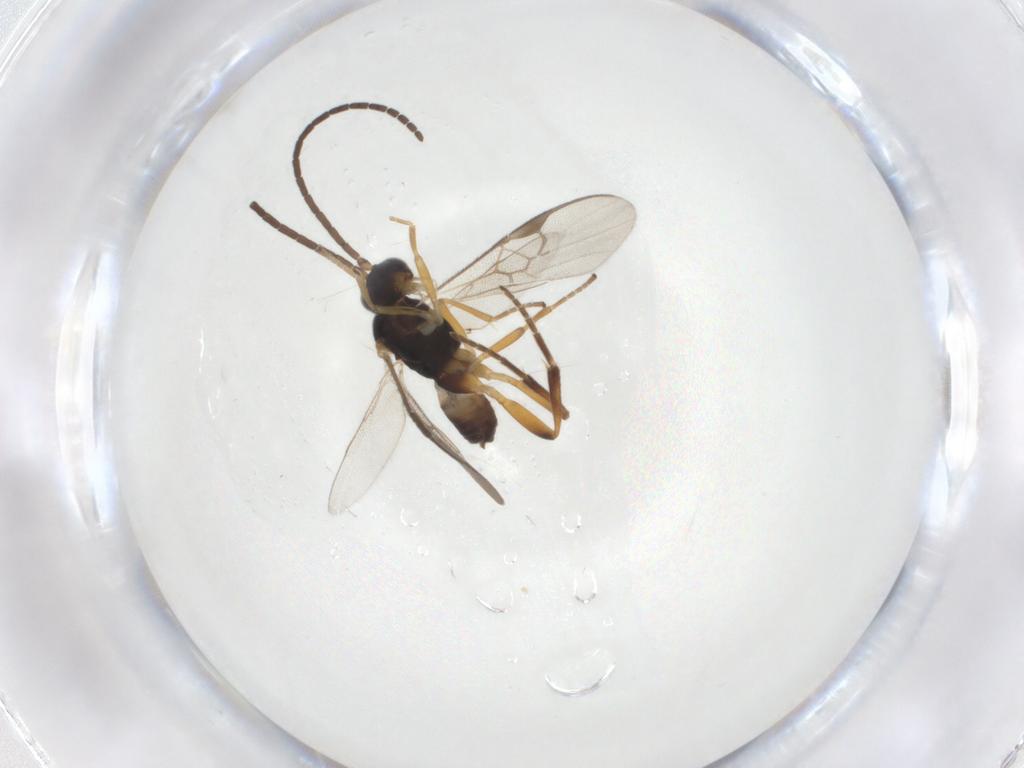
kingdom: Animalia
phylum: Arthropoda
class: Insecta
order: Hymenoptera
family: Braconidae
